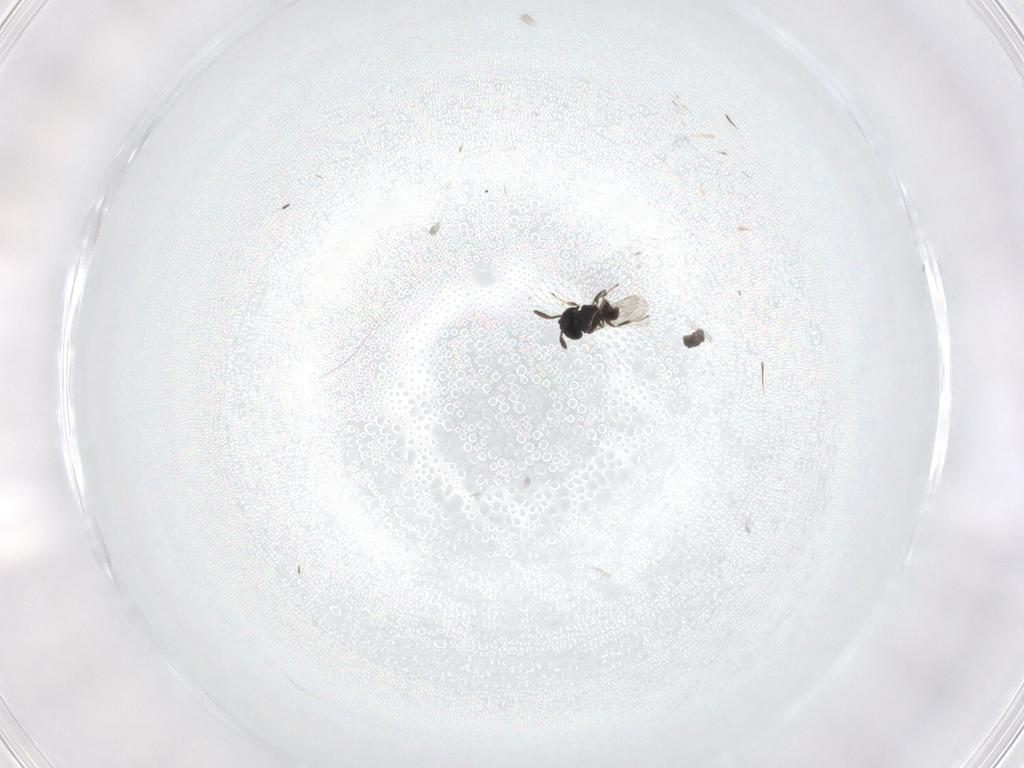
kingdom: Animalia
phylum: Arthropoda
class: Insecta
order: Hymenoptera
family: Scelionidae
